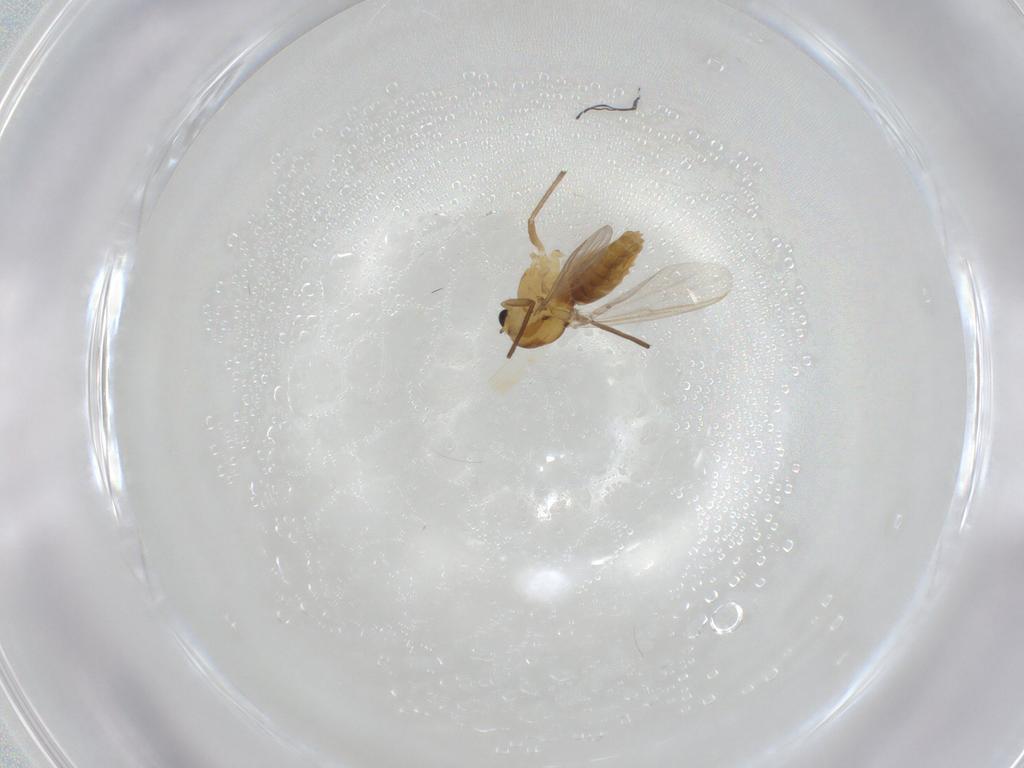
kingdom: Animalia
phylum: Arthropoda
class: Insecta
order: Diptera
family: Chironomidae
